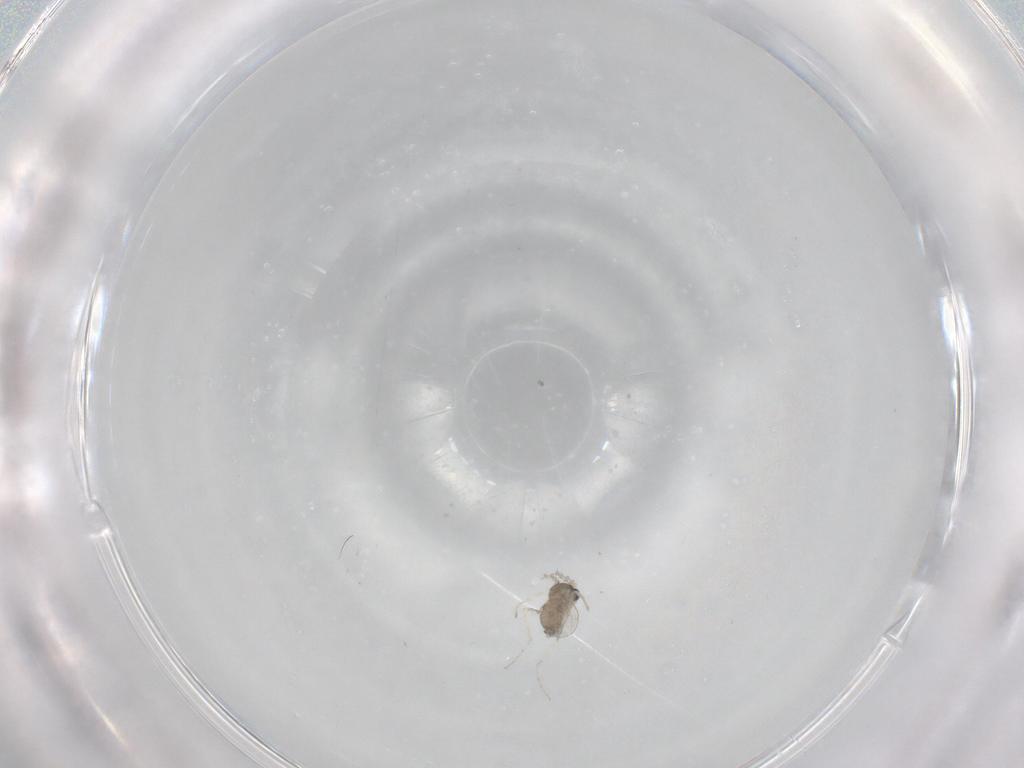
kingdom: Animalia
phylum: Arthropoda
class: Insecta
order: Diptera
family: Cecidomyiidae
